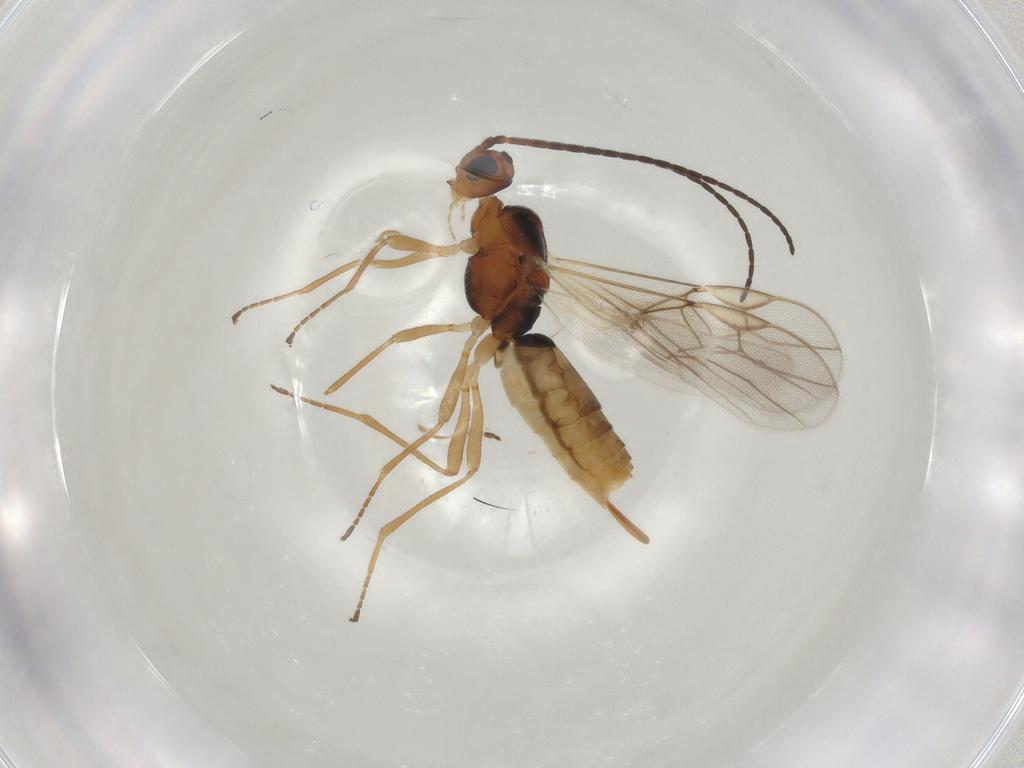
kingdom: Animalia
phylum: Arthropoda
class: Insecta
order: Hymenoptera
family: Braconidae
